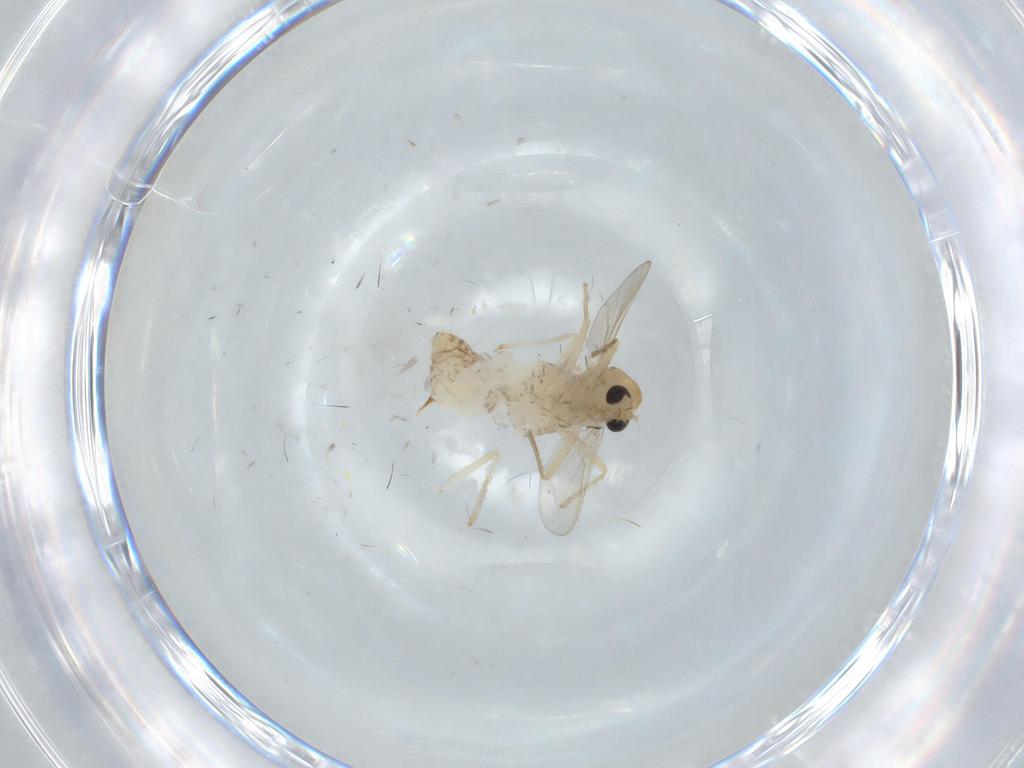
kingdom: Animalia
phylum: Arthropoda
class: Insecta
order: Diptera
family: Chironomidae
